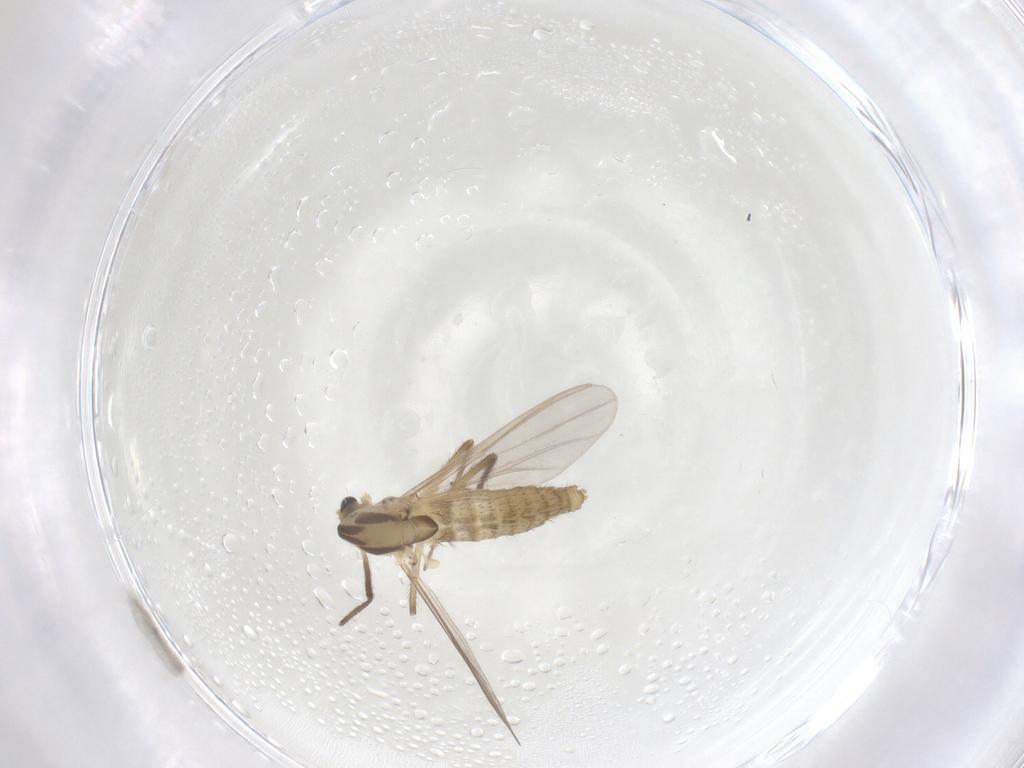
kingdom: Animalia
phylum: Arthropoda
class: Insecta
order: Diptera
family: Chironomidae
